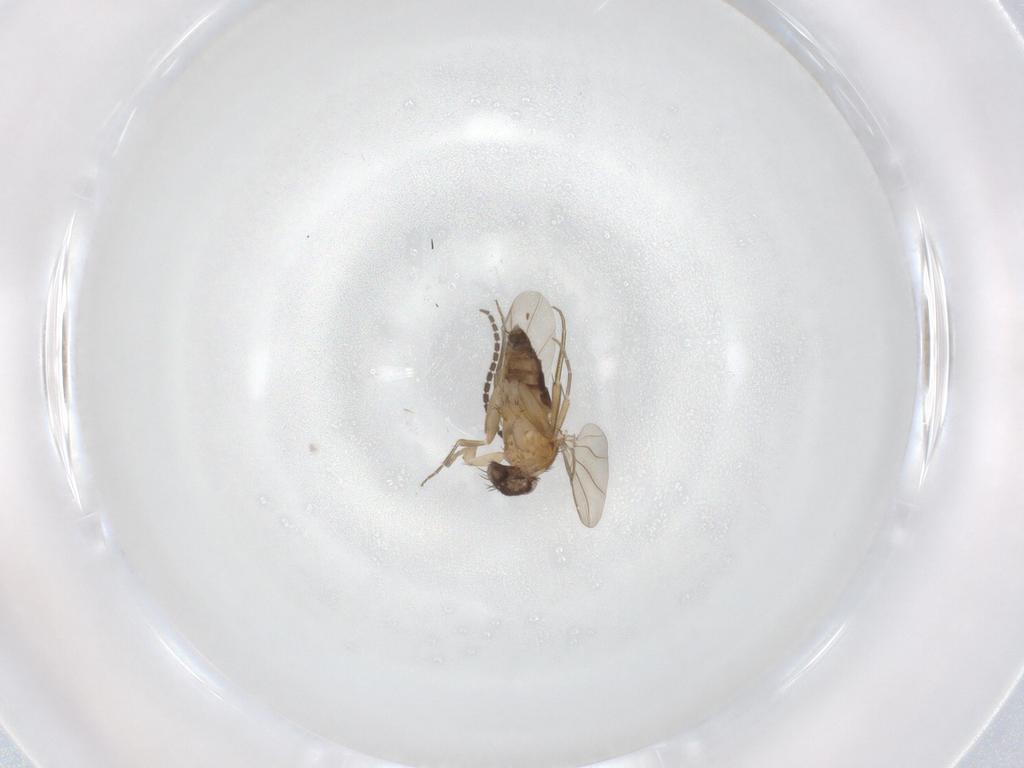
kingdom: Animalia
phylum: Arthropoda
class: Insecta
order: Diptera
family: Phoridae
